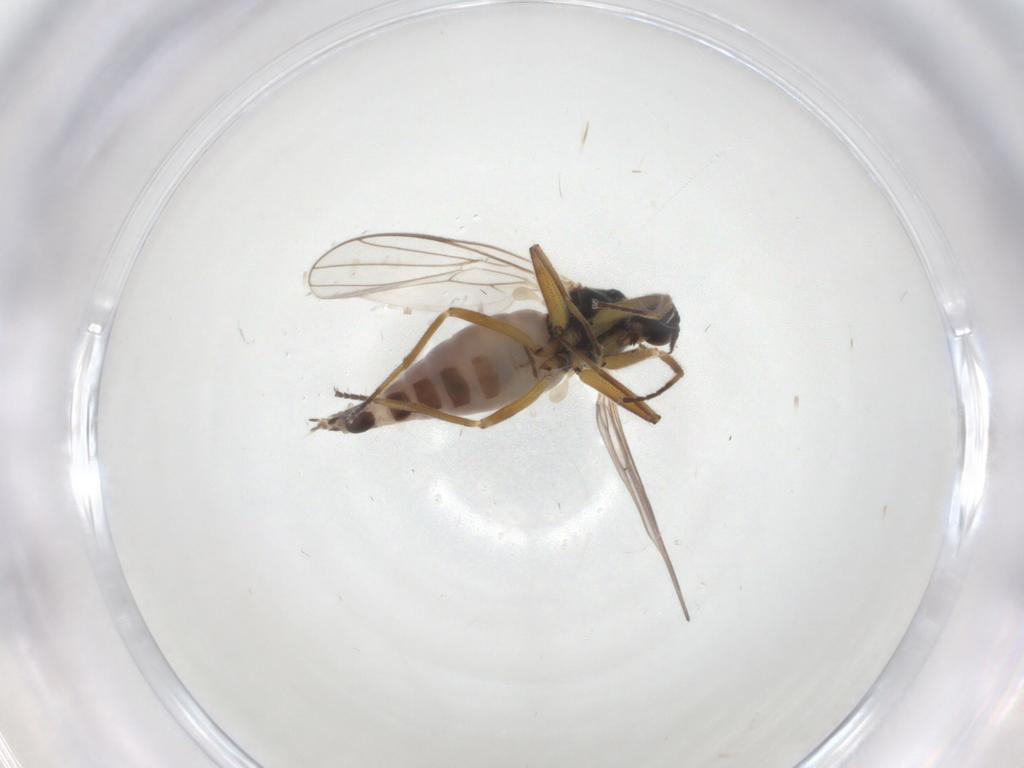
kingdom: Animalia
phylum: Arthropoda
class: Insecta
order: Diptera
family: Hybotidae
